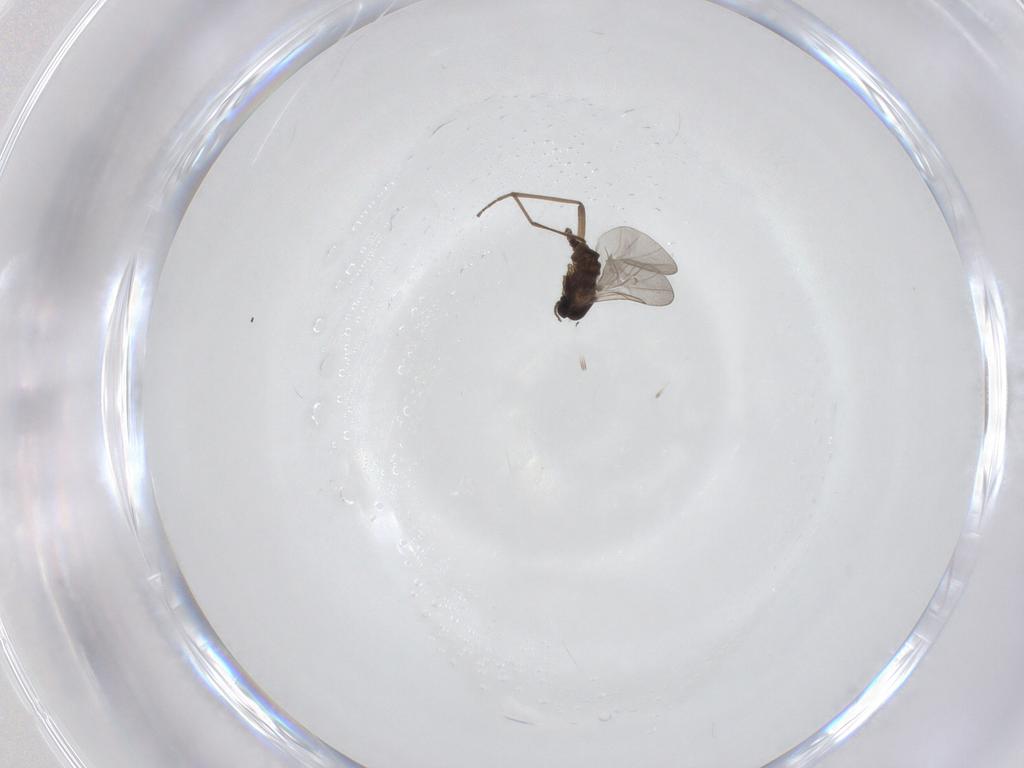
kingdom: Animalia
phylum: Arthropoda
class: Insecta
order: Diptera
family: Cecidomyiidae
